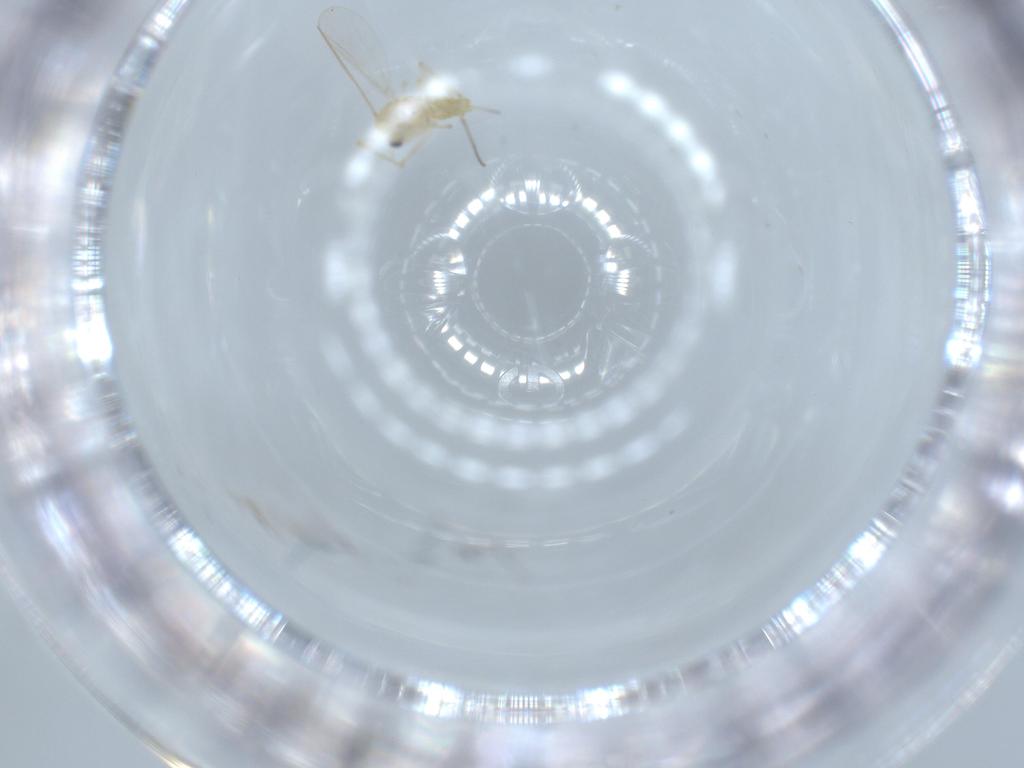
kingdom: Animalia
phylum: Arthropoda
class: Insecta
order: Diptera
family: Chironomidae
